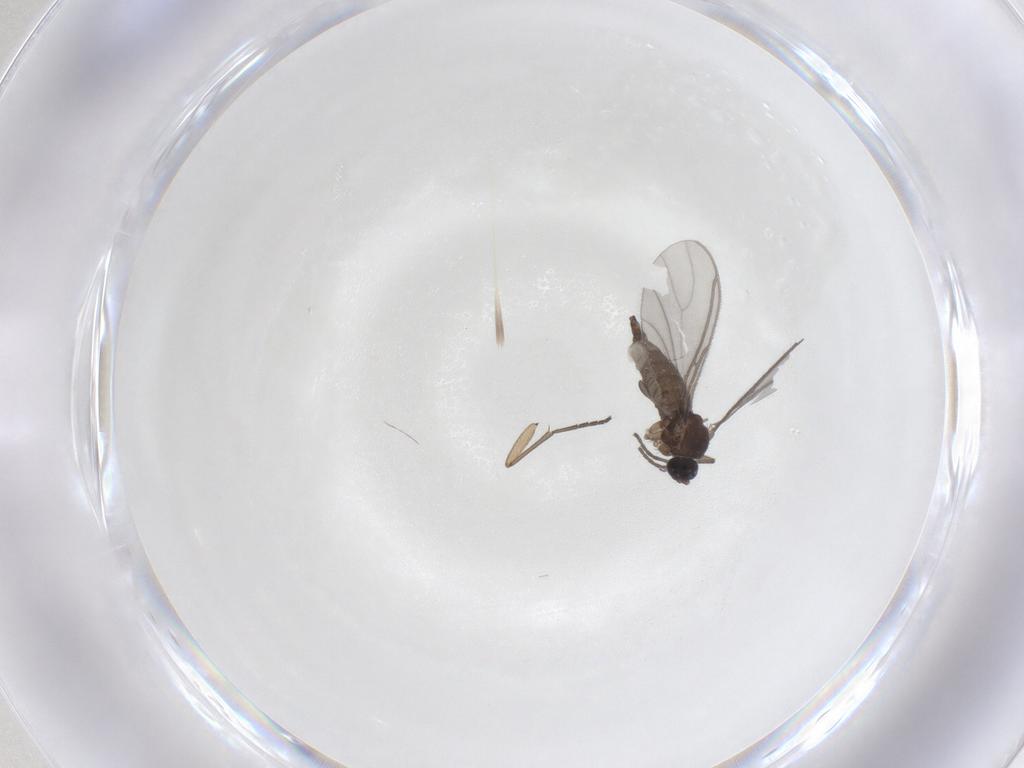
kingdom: Animalia
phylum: Arthropoda
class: Insecta
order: Diptera
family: Sciaridae
